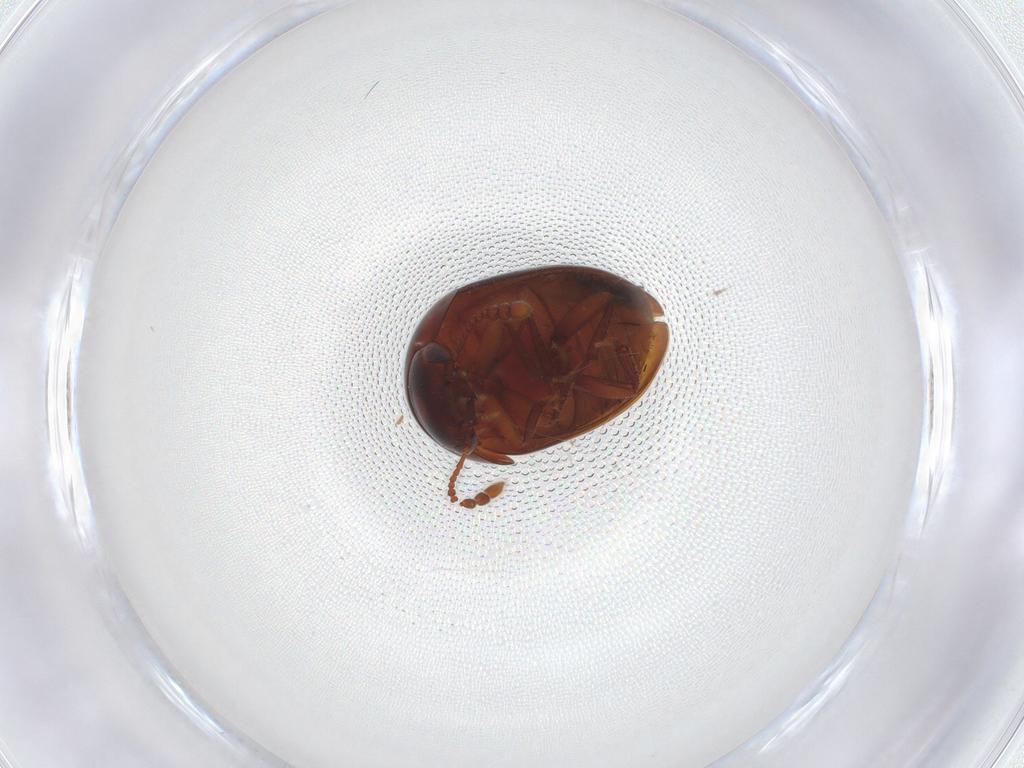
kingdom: Animalia
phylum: Arthropoda
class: Insecta
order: Coleoptera
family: Leiodidae
